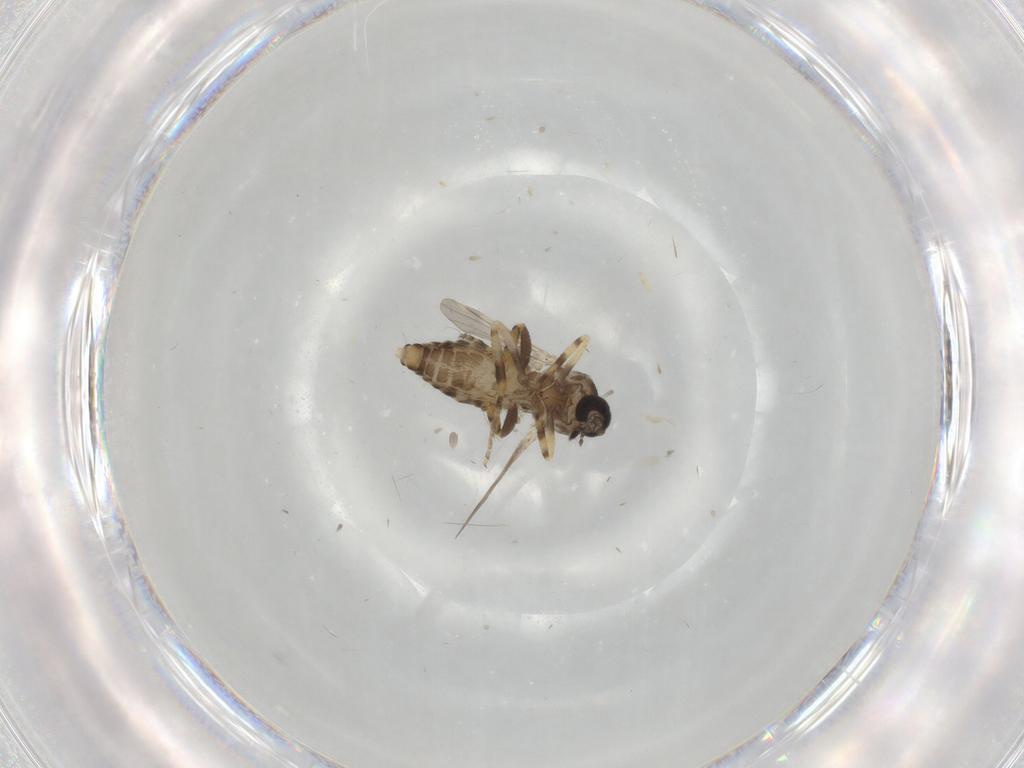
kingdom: Animalia
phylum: Arthropoda
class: Insecta
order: Diptera
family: Ceratopogonidae
